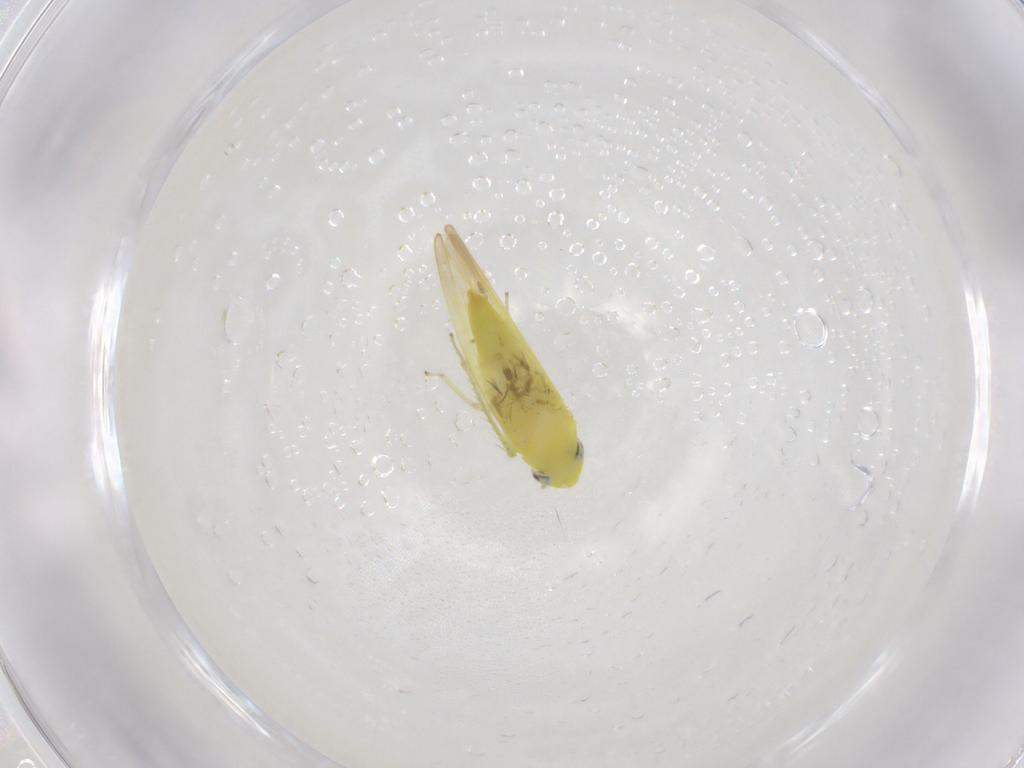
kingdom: Animalia
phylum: Arthropoda
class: Insecta
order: Hemiptera
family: Cicadellidae
